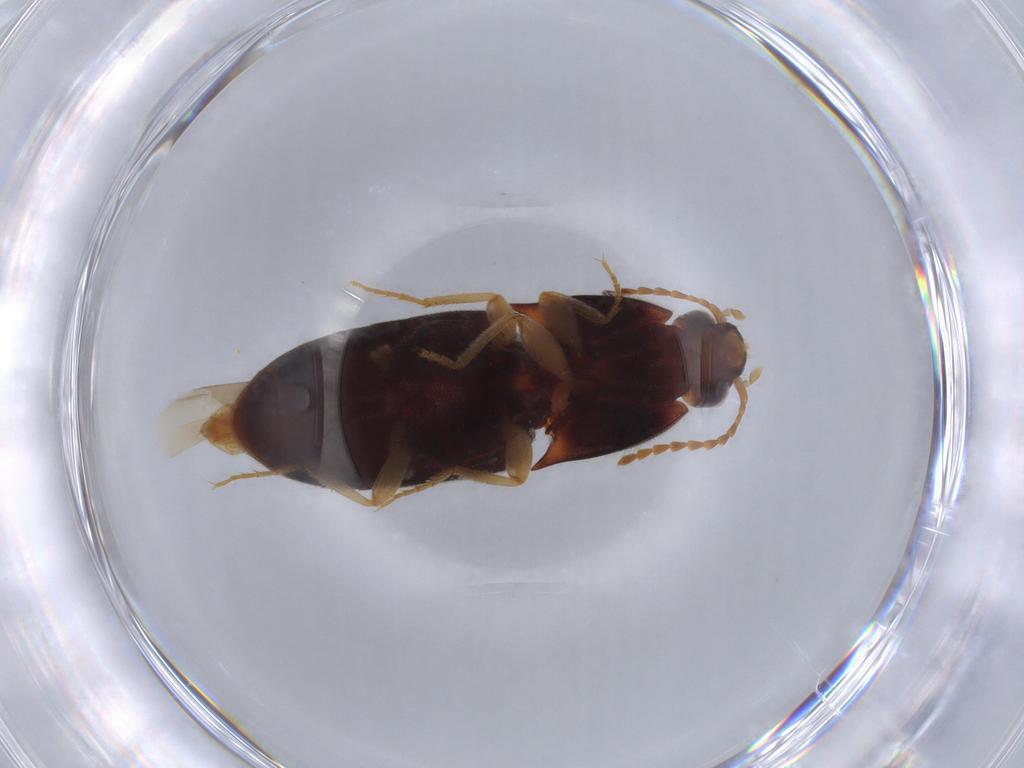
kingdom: Animalia
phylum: Arthropoda
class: Insecta
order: Coleoptera
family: Elateridae
